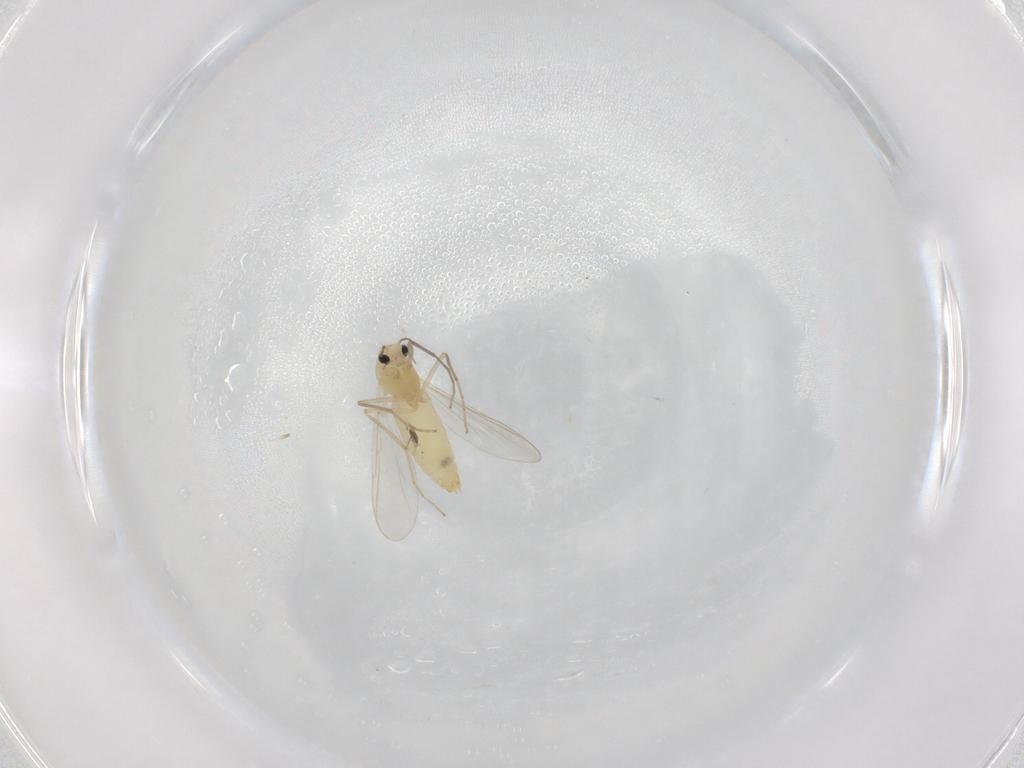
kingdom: Animalia
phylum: Arthropoda
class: Insecta
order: Diptera
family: Chironomidae
